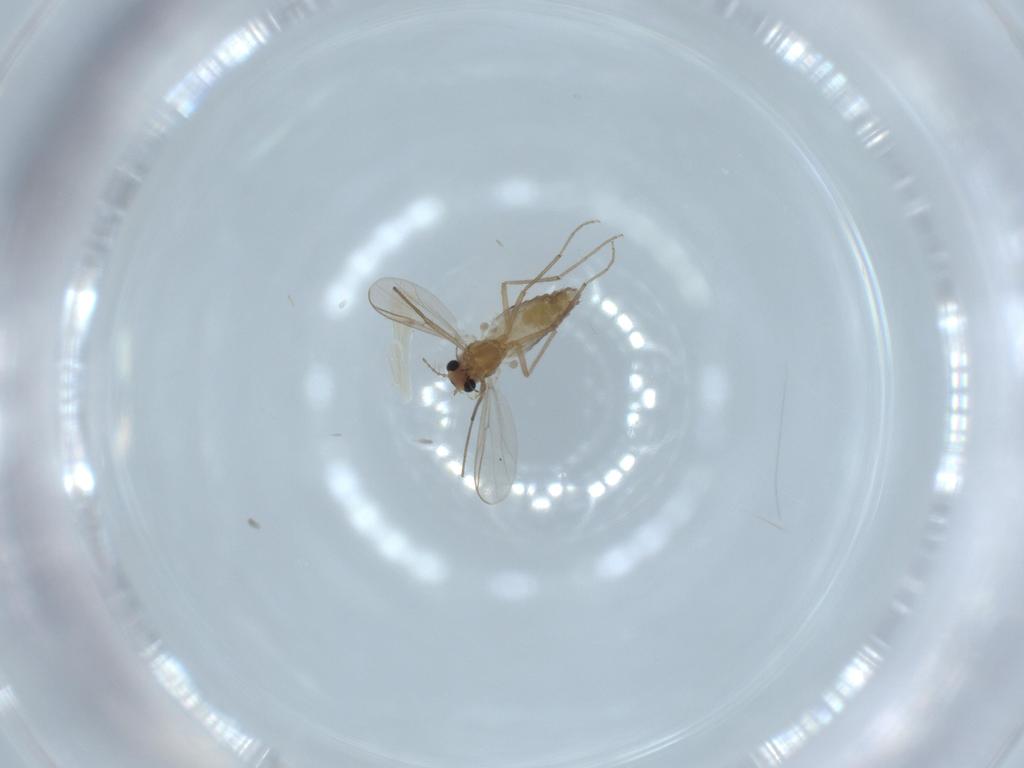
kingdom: Animalia
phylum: Arthropoda
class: Insecta
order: Diptera
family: Chironomidae
